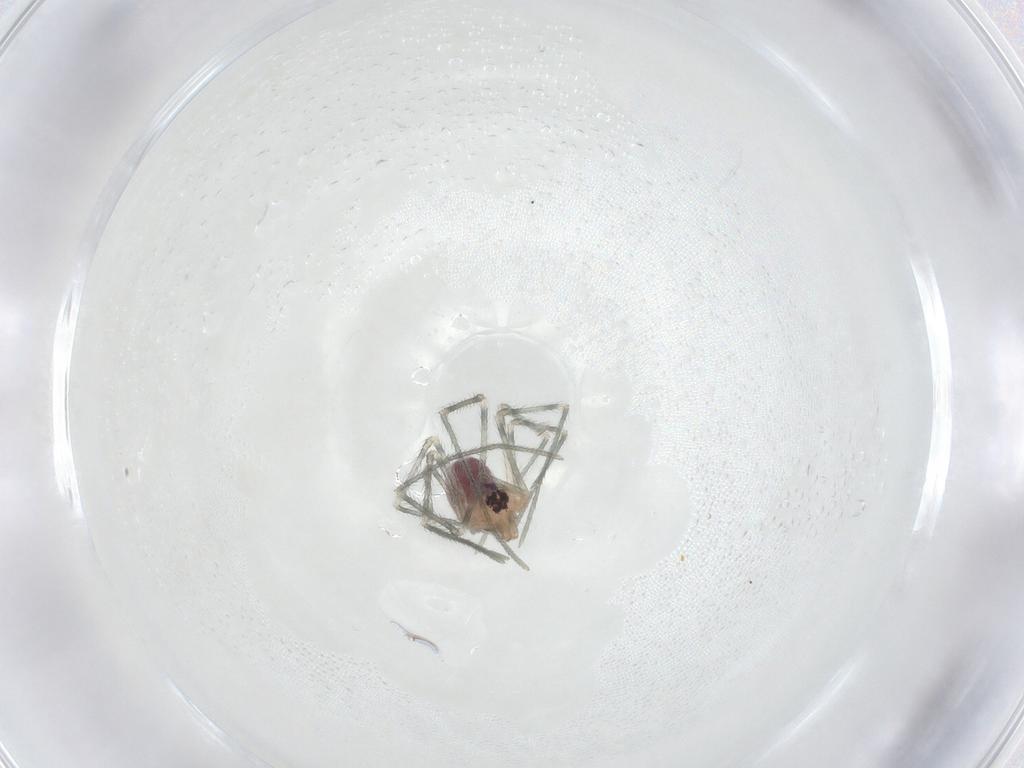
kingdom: Animalia
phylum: Arthropoda
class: Arachnida
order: Araneae
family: Pholcidae
